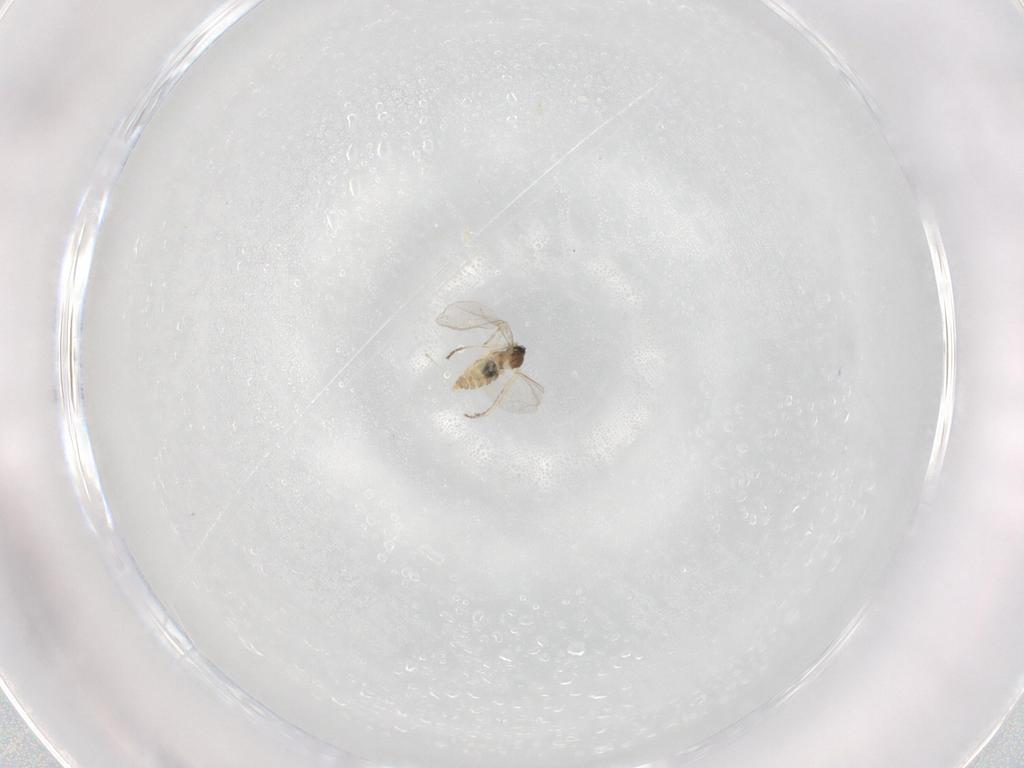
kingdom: Animalia
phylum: Arthropoda
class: Insecta
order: Diptera
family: Cecidomyiidae
